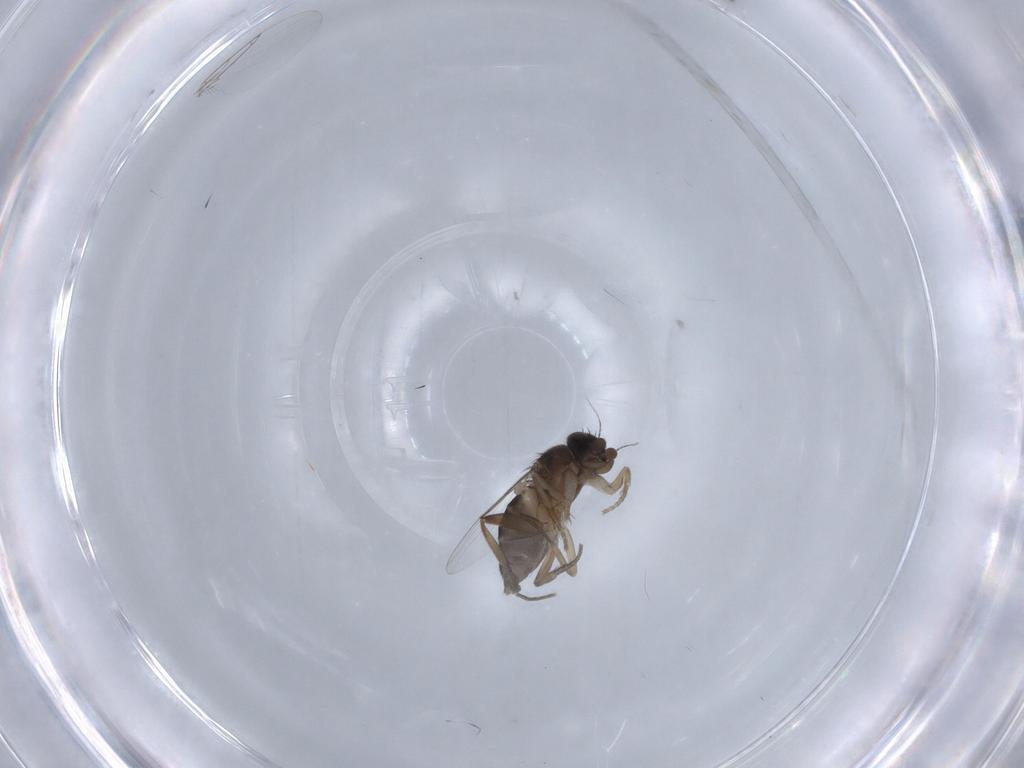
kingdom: Animalia
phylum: Arthropoda
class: Insecta
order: Diptera
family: Phoridae
